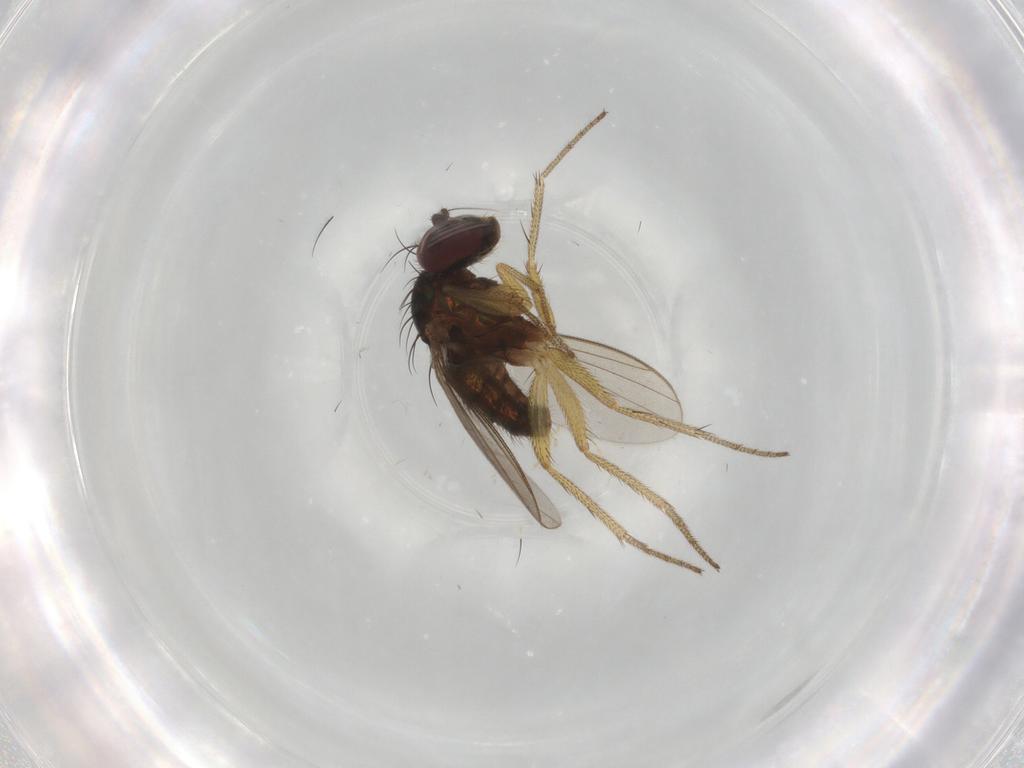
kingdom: Animalia
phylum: Arthropoda
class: Insecta
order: Diptera
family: Dolichopodidae
